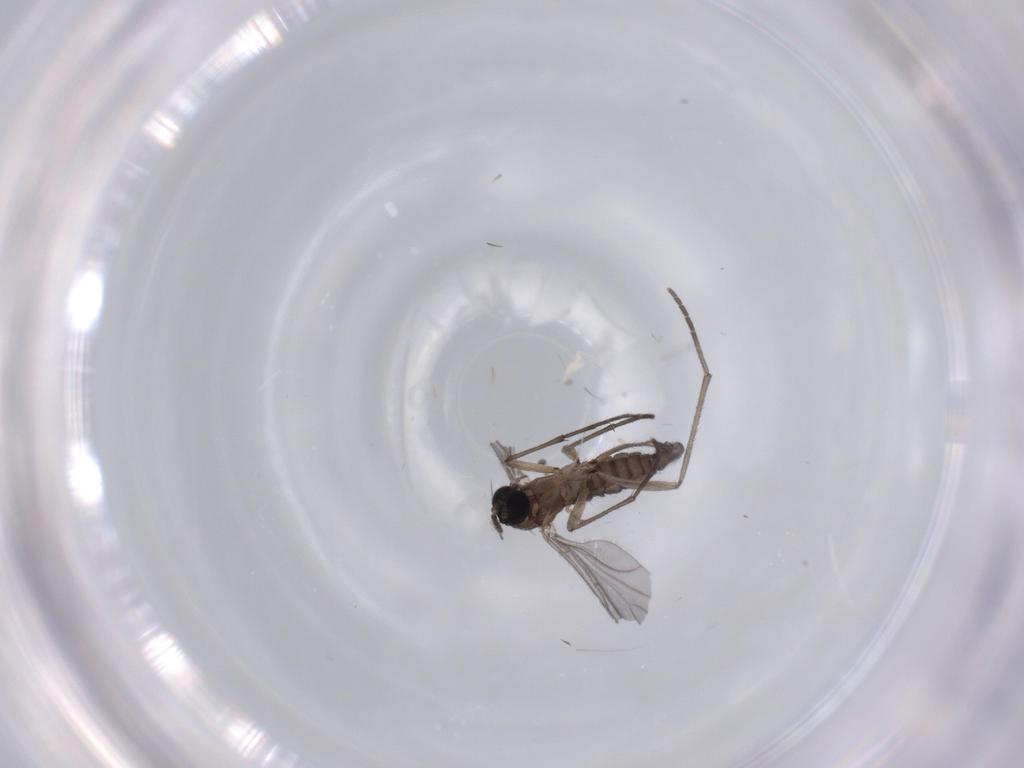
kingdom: Animalia
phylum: Arthropoda
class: Insecta
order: Diptera
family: Sciaridae
